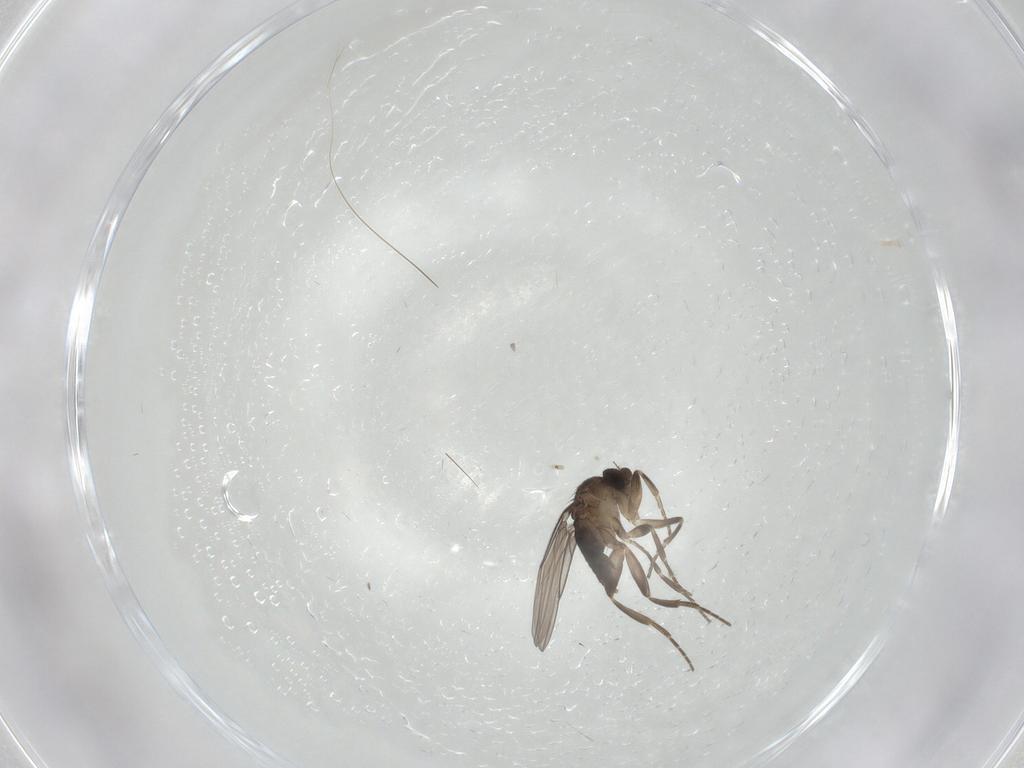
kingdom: Animalia
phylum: Arthropoda
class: Insecta
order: Diptera
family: Phoridae
